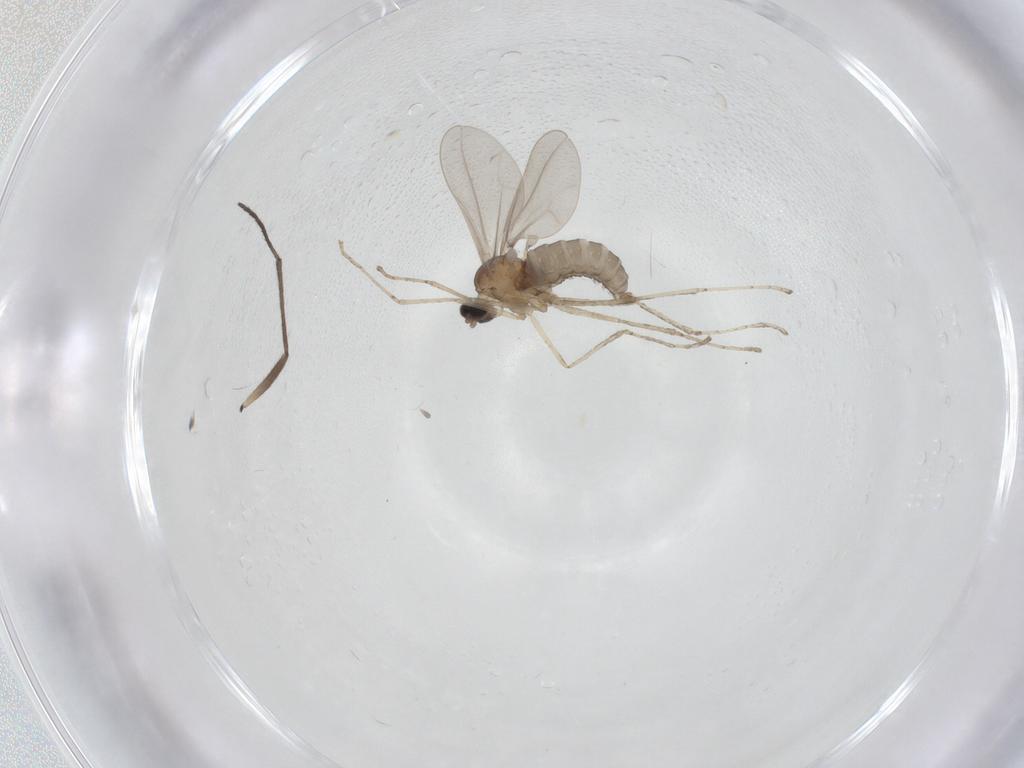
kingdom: Animalia
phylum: Arthropoda
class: Insecta
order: Diptera
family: Cecidomyiidae
